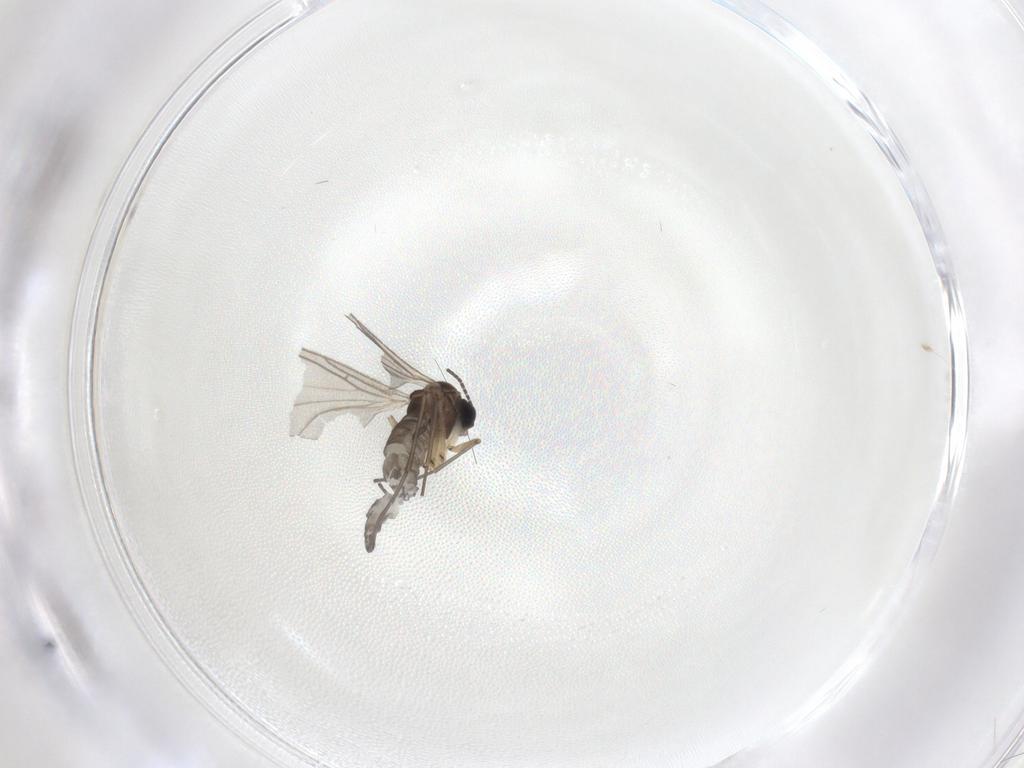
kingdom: Animalia
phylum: Arthropoda
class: Insecta
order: Diptera
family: Sciaridae
